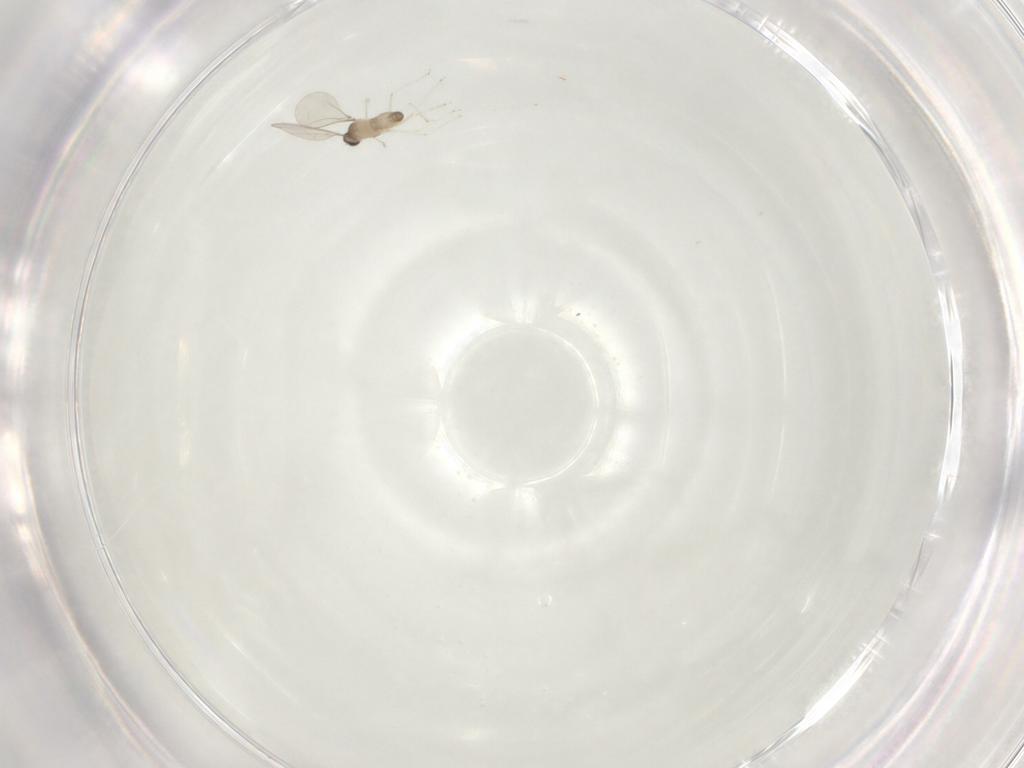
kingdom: Animalia
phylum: Arthropoda
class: Insecta
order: Diptera
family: Cecidomyiidae
